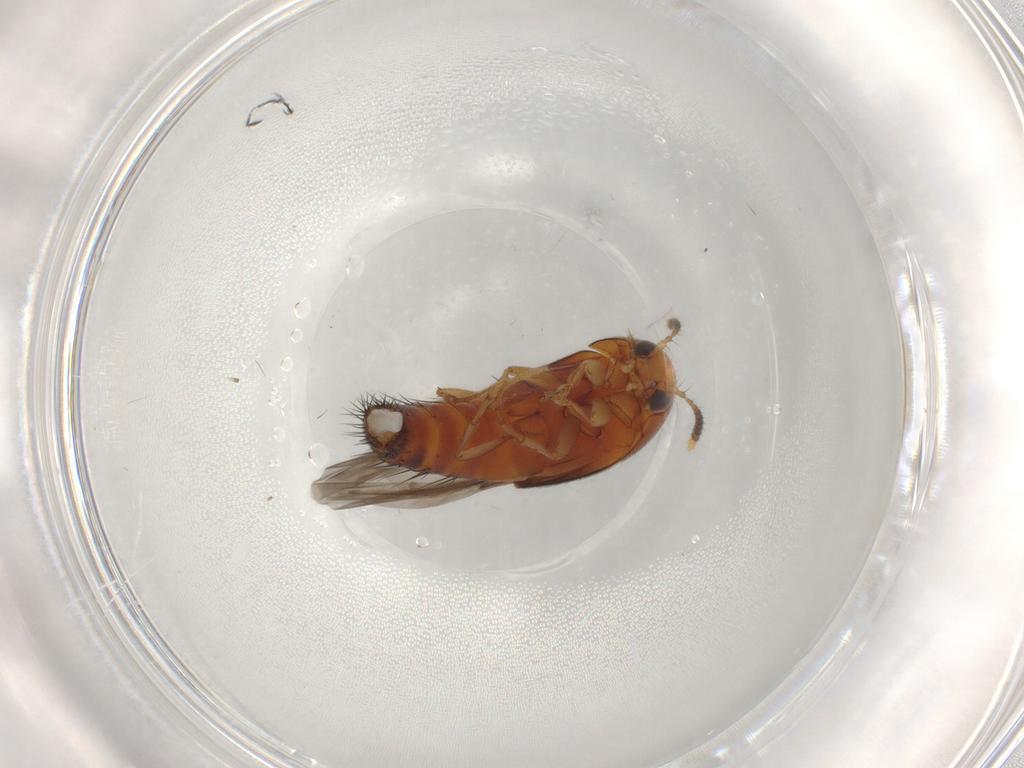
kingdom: Animalia
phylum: Arthropoda
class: Insecta
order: Coleoptera
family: Staphylinidae
